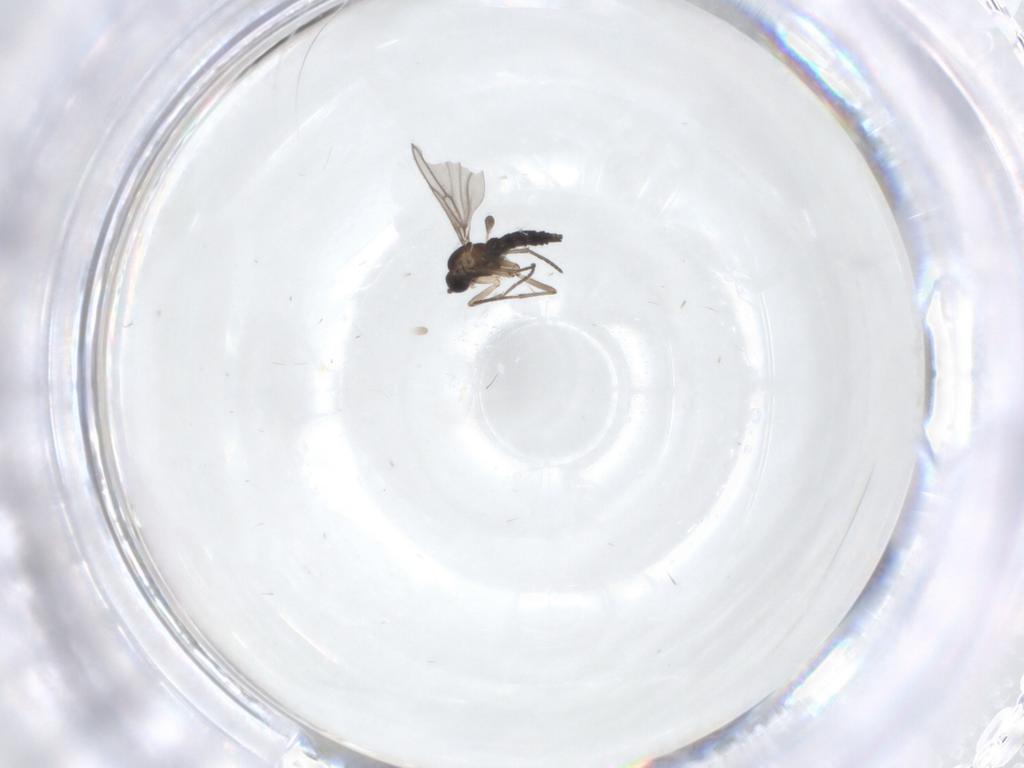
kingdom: Animalia
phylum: Arthropoda
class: Insecta
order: Diptera
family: Sciaridae
